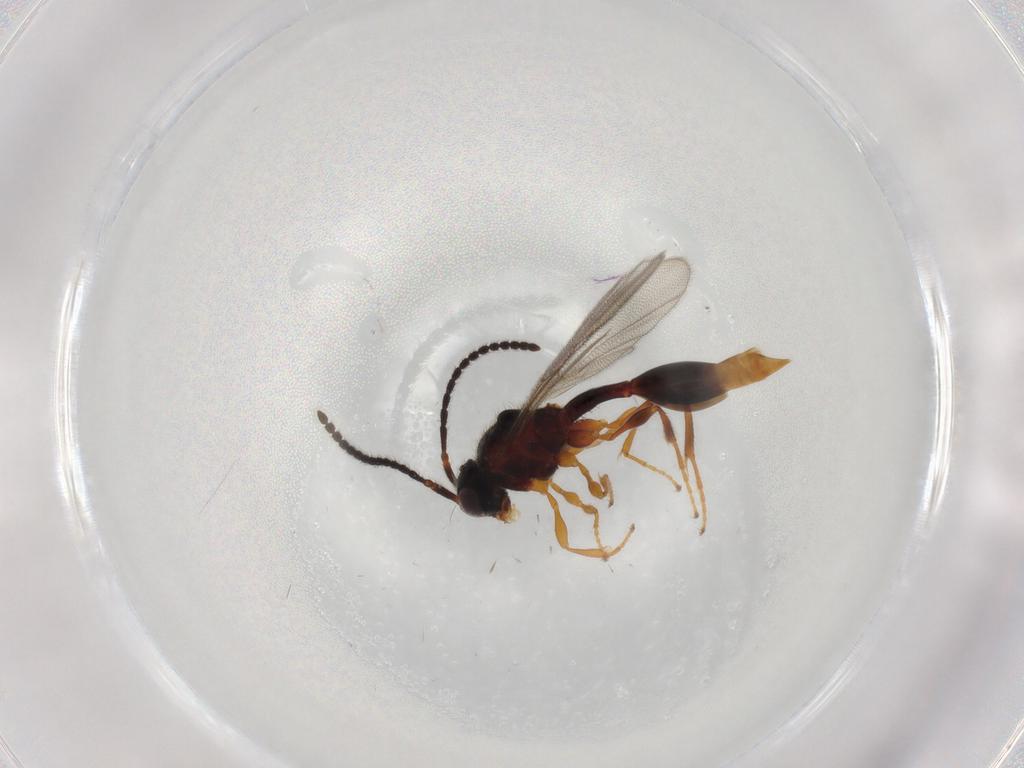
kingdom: Animalia
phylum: Arthropoda
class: Insecta
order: Hymenoptera
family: Diapriidae
